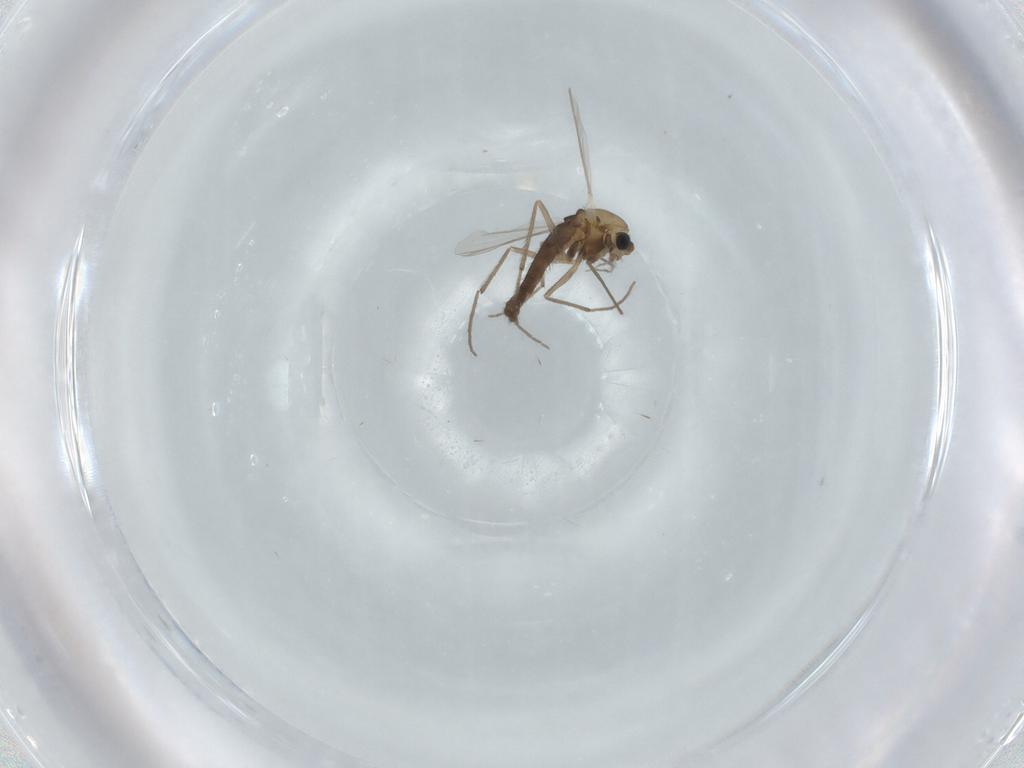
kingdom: Animalia
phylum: Arthropoda
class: Insecta
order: Diptera
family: Chironomidae
